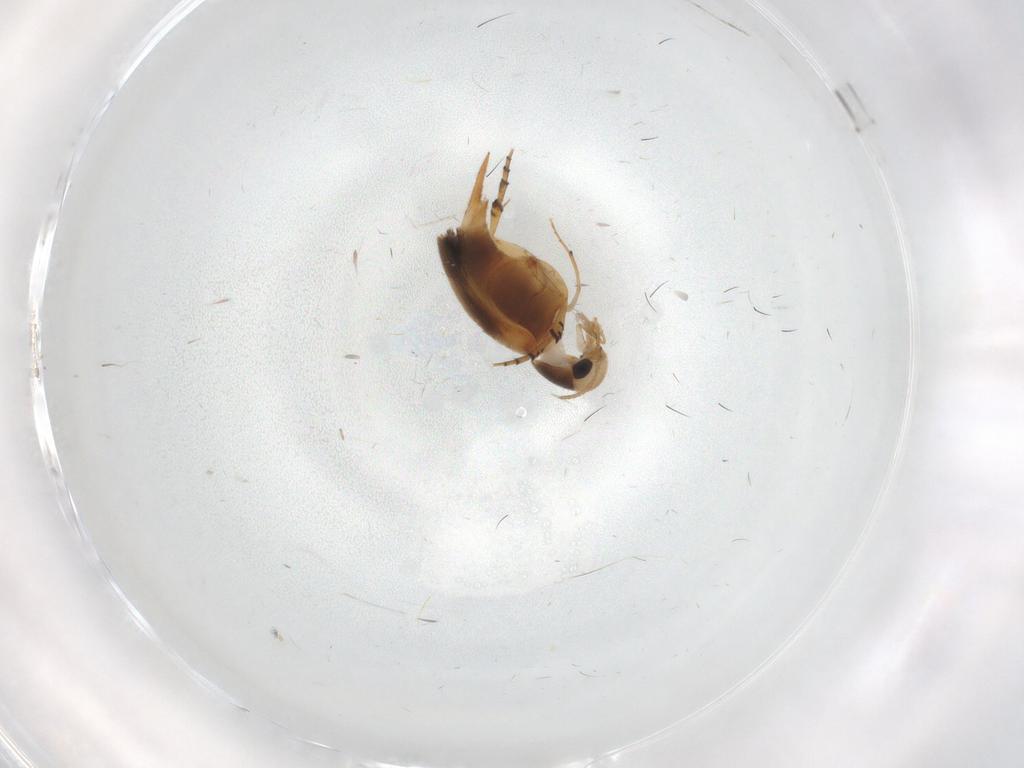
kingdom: Animalia
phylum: Arthropoda
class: Insecta
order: Coleoptera
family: Mordellidae
